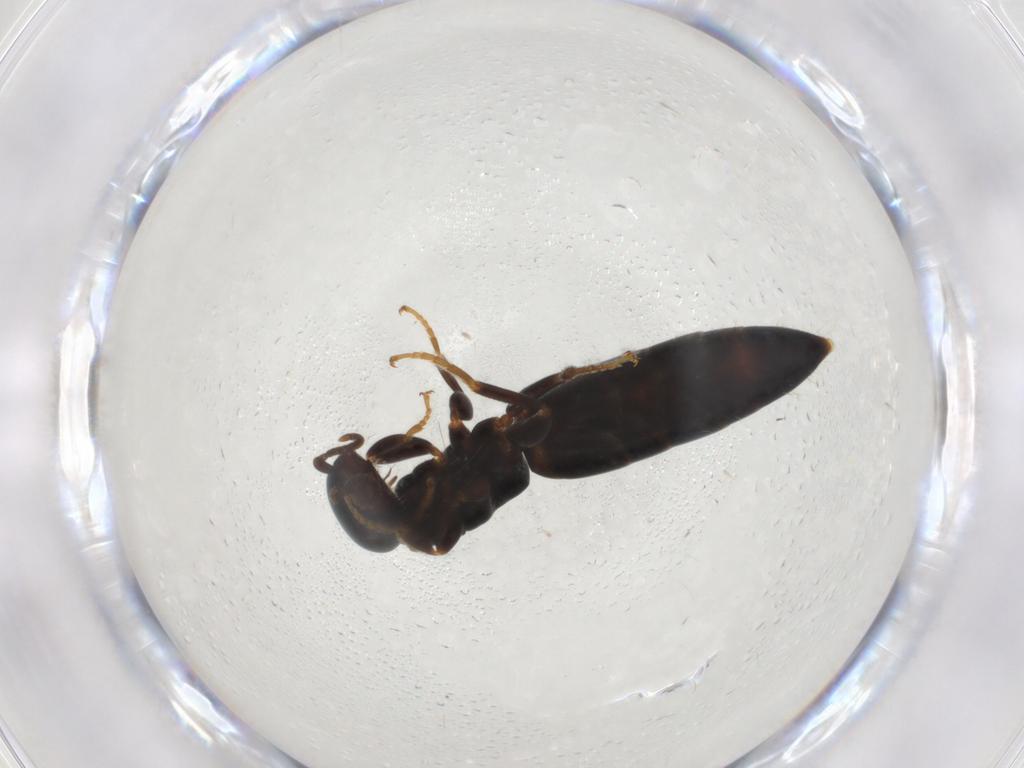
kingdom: Animalia
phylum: Arthropoda
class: Insecta
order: Hymenoptera
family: Bethylidae
